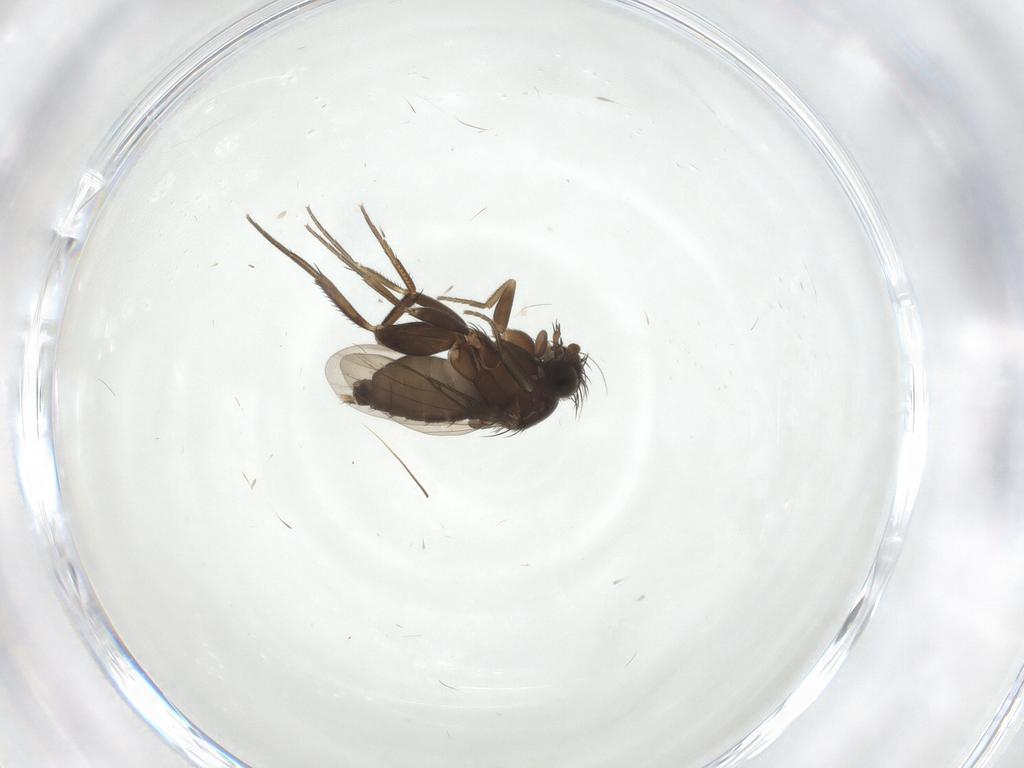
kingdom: Animalia
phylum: Arthropoda
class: Insecta
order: Diptera
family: Phoridae
